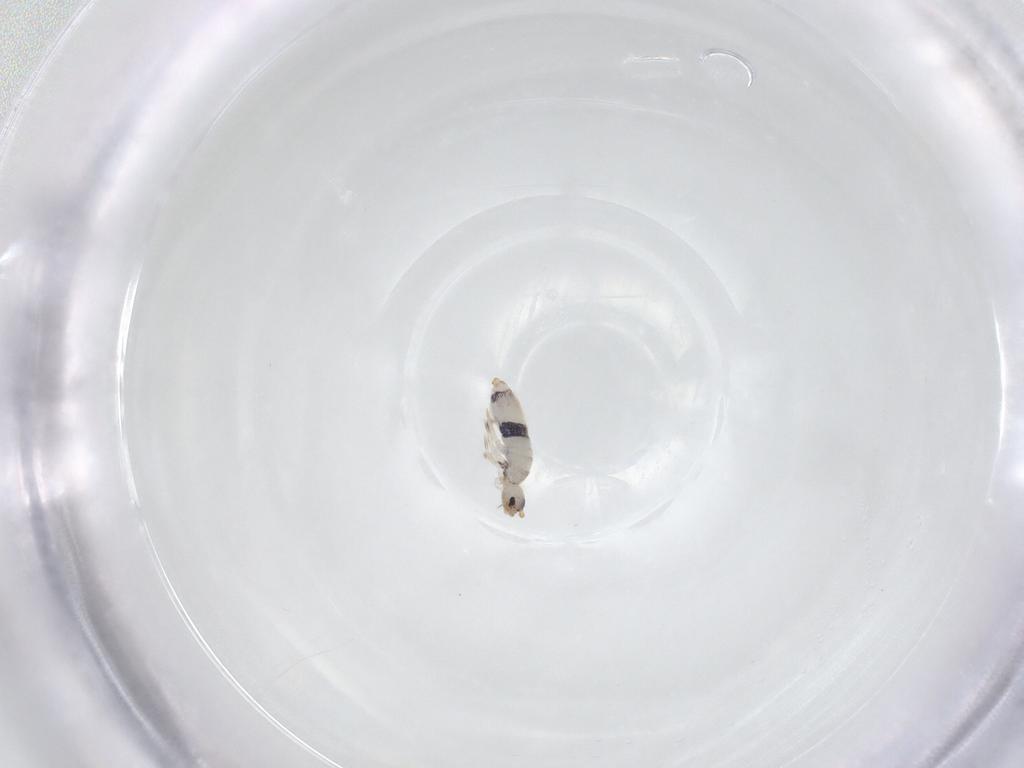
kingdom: Animalia
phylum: Arthropoda
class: Collembola
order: Entomobryomorpha
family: Entomobryidae
